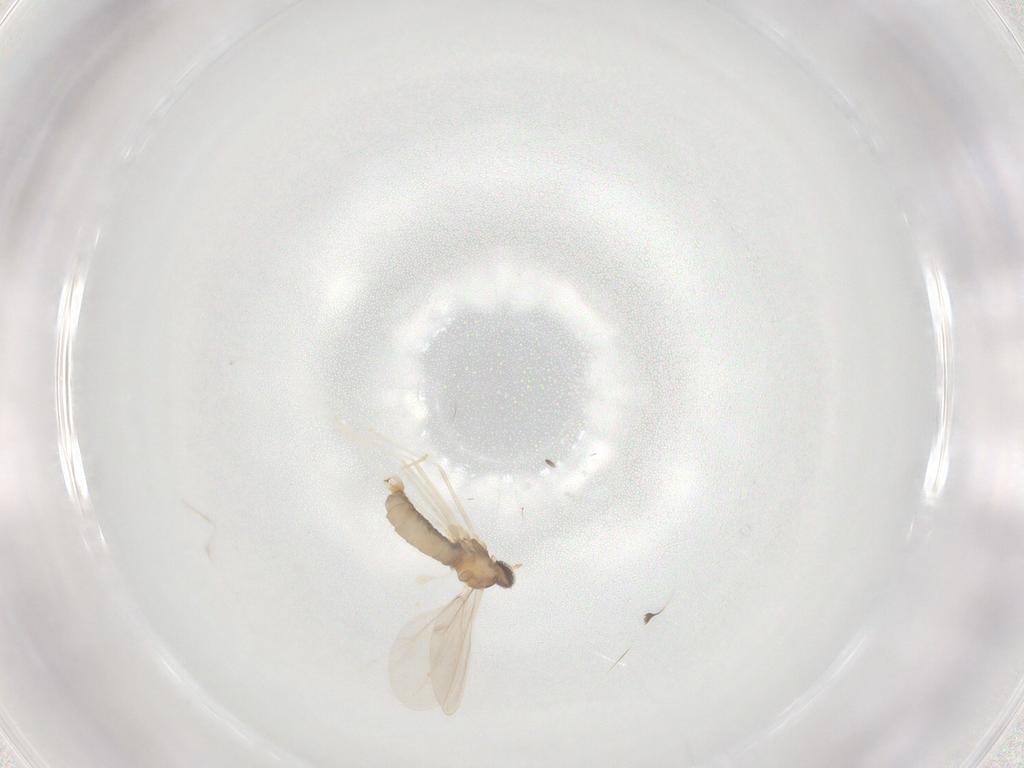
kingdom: Animalia
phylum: Arthropoda
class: Insecta
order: Diptera
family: Cecidomyiidae
